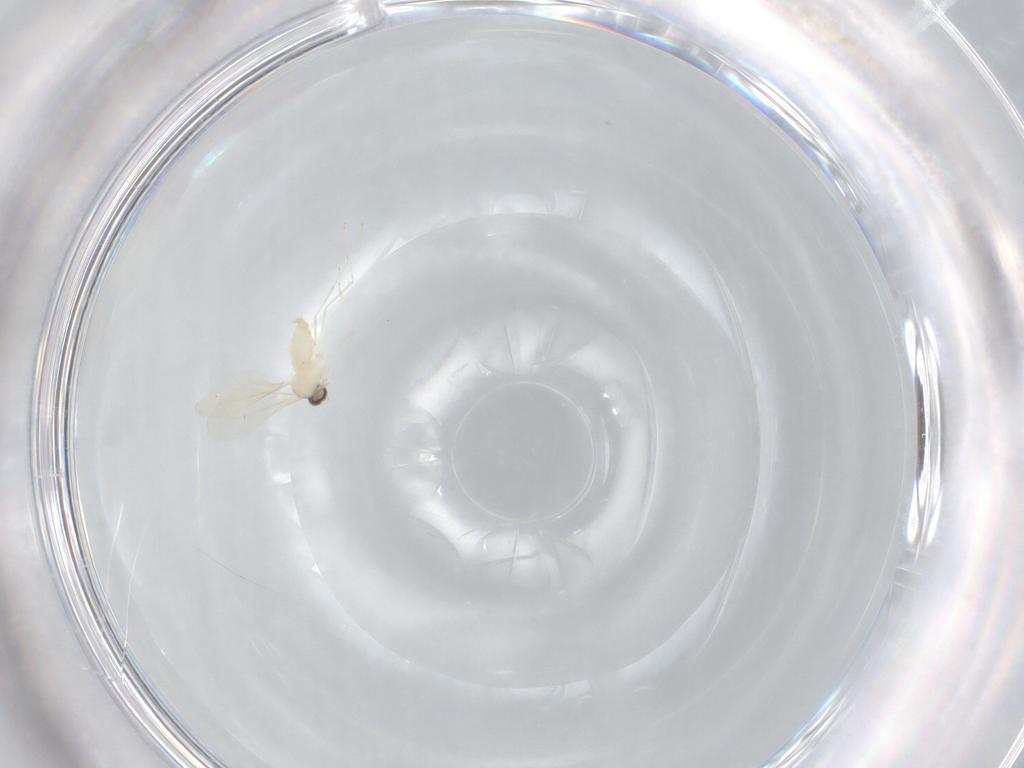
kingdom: Animalia
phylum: Arthropoda
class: Insecta
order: Diptera
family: Cecidomyiidae
